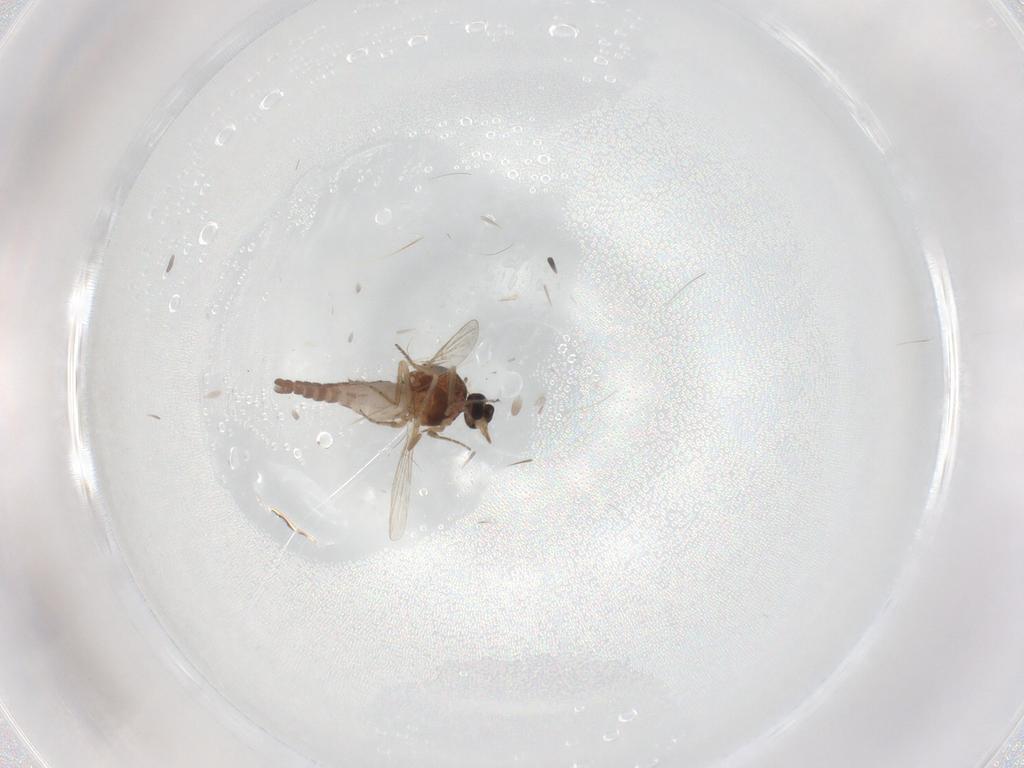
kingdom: Animalia
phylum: Arthropoda
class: Insecta
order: Diptera
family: Ceratopogonidae
